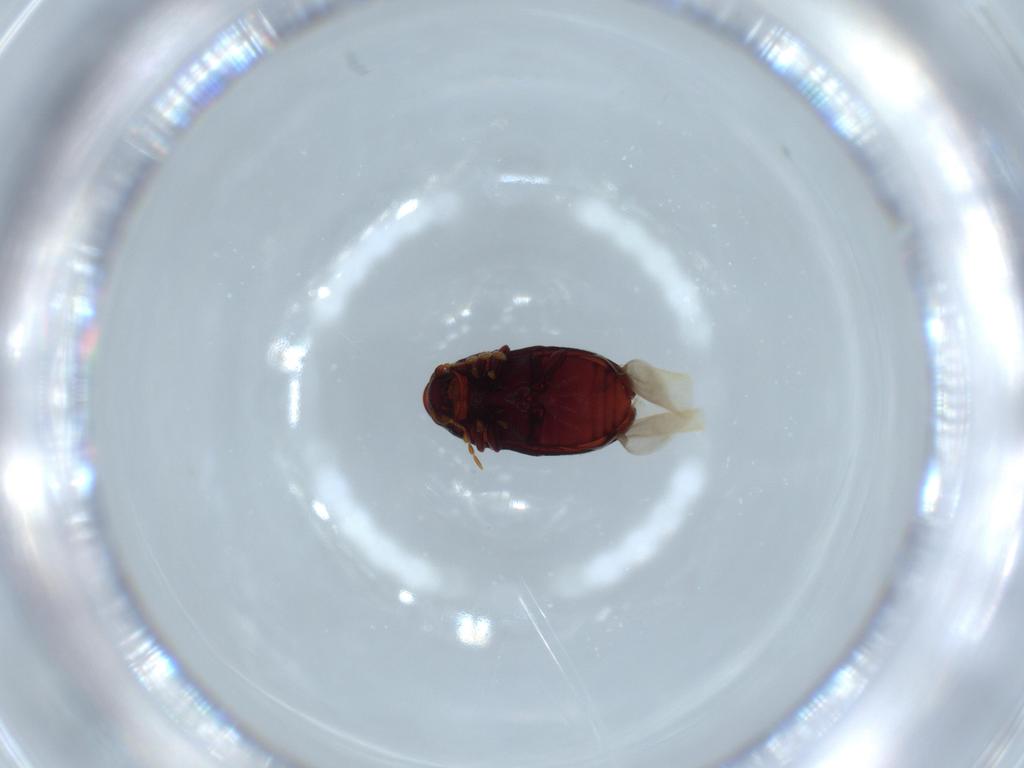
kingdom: Animalia
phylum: Arthropoda
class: Insecta
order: Coleoptera
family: Ptinidae
